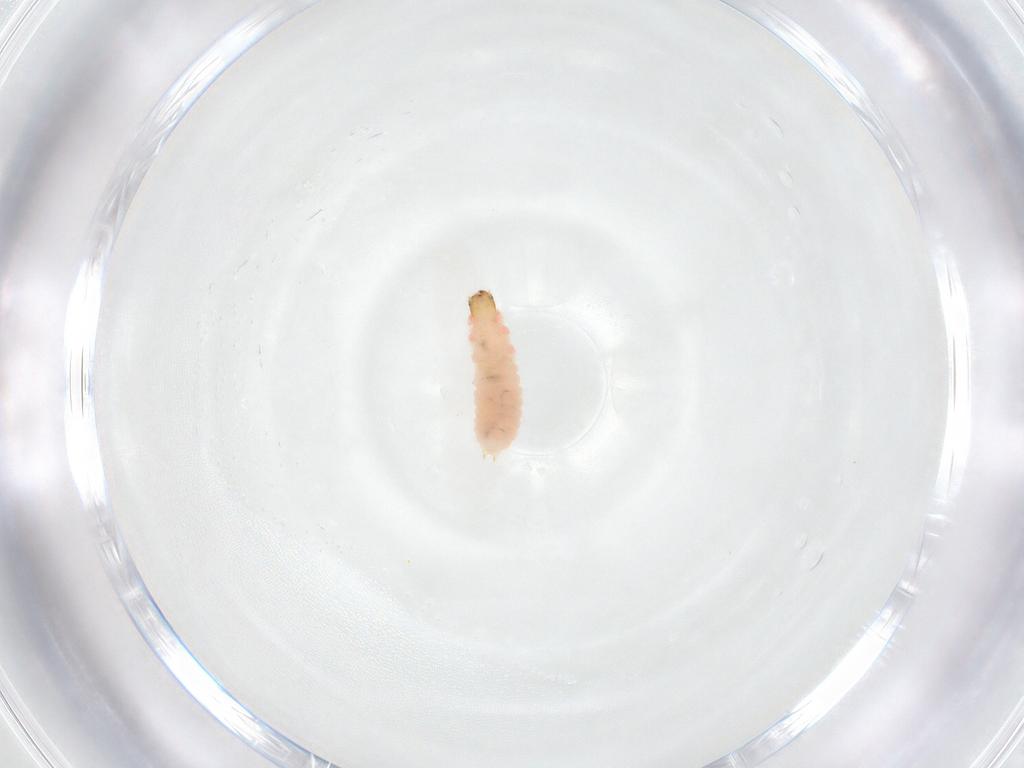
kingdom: Animalia
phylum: Arthropoda
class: Insecta
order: Coleoptera
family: Melyridae
